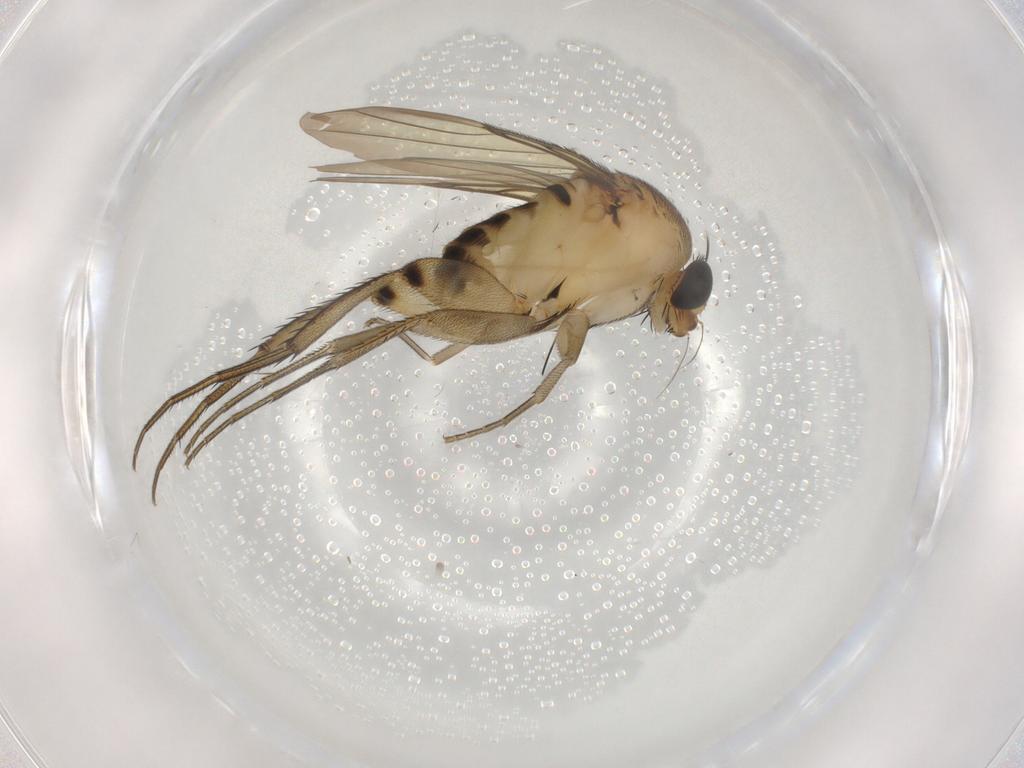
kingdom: Animalia
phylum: Arthropoda
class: Insecta
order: Diptera
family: Phoridae
